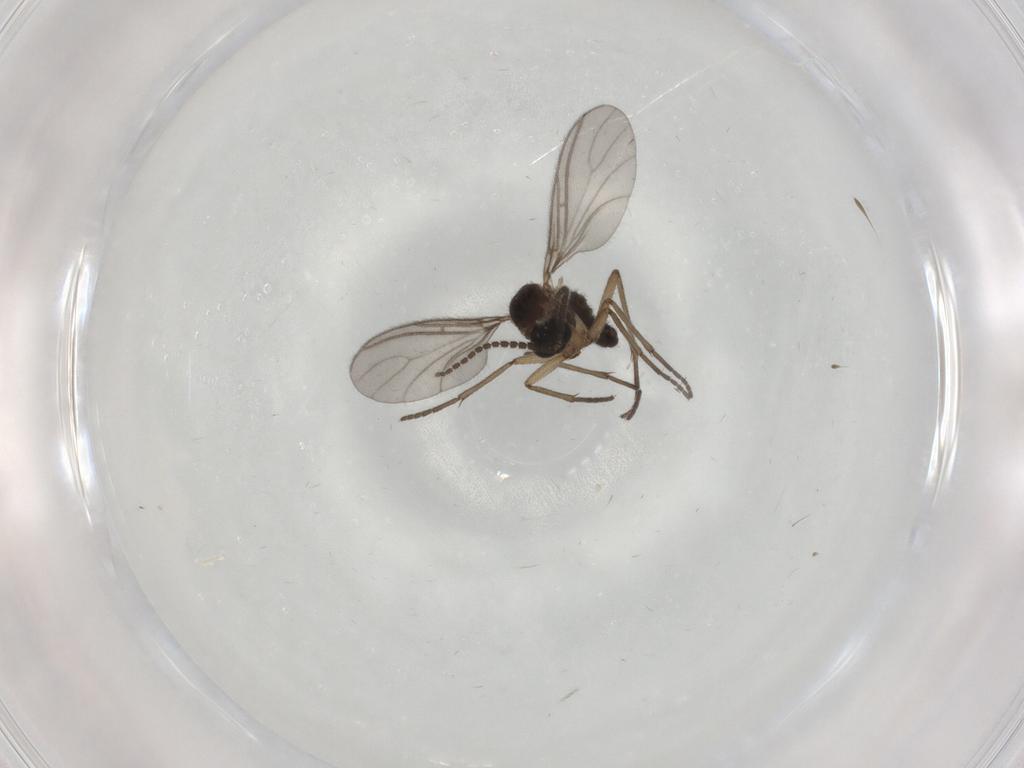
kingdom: Animalia
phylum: Arthropoda
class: Insecta
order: Diptera
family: Sciaridae
